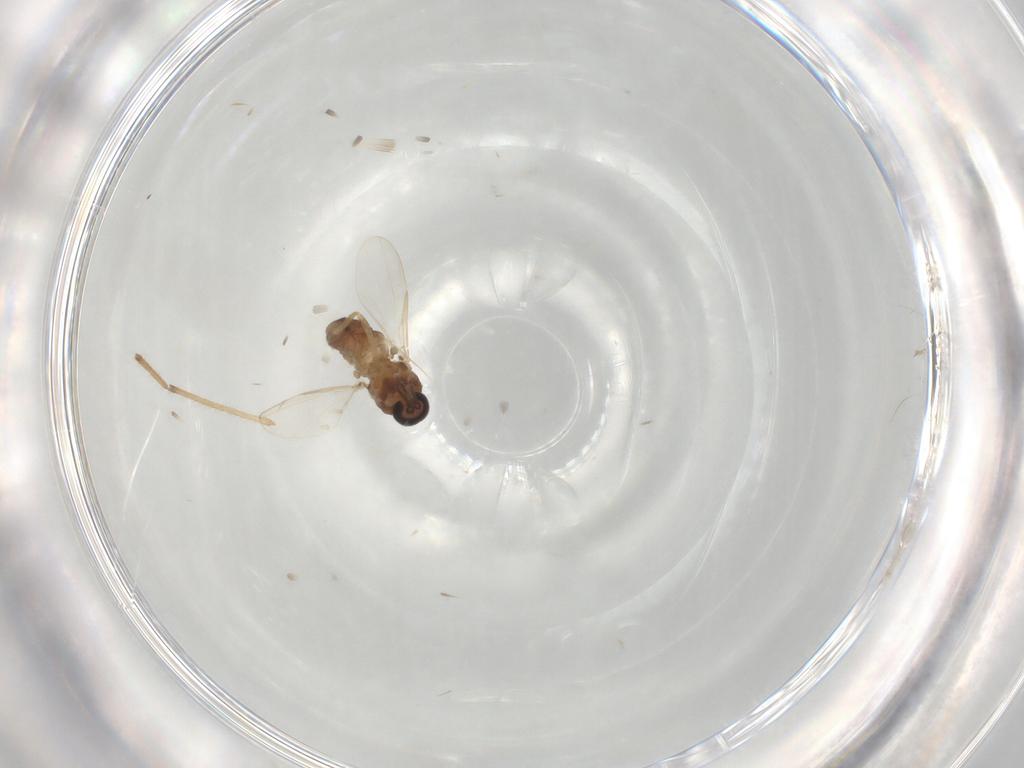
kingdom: Animalia
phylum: Arthropoda
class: Insecta
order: Diptera
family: Ceratopogonidae
